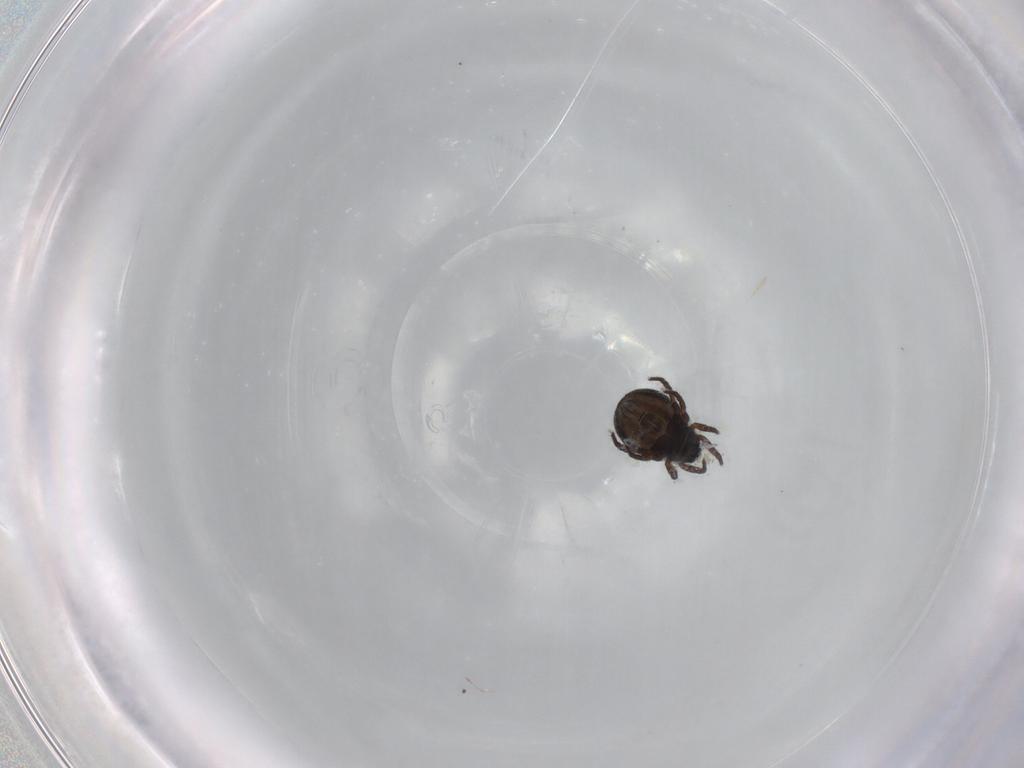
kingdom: Animalia
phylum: Arthropoda
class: Arachnida
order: Sarcoptiformes
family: Crotoniidae
